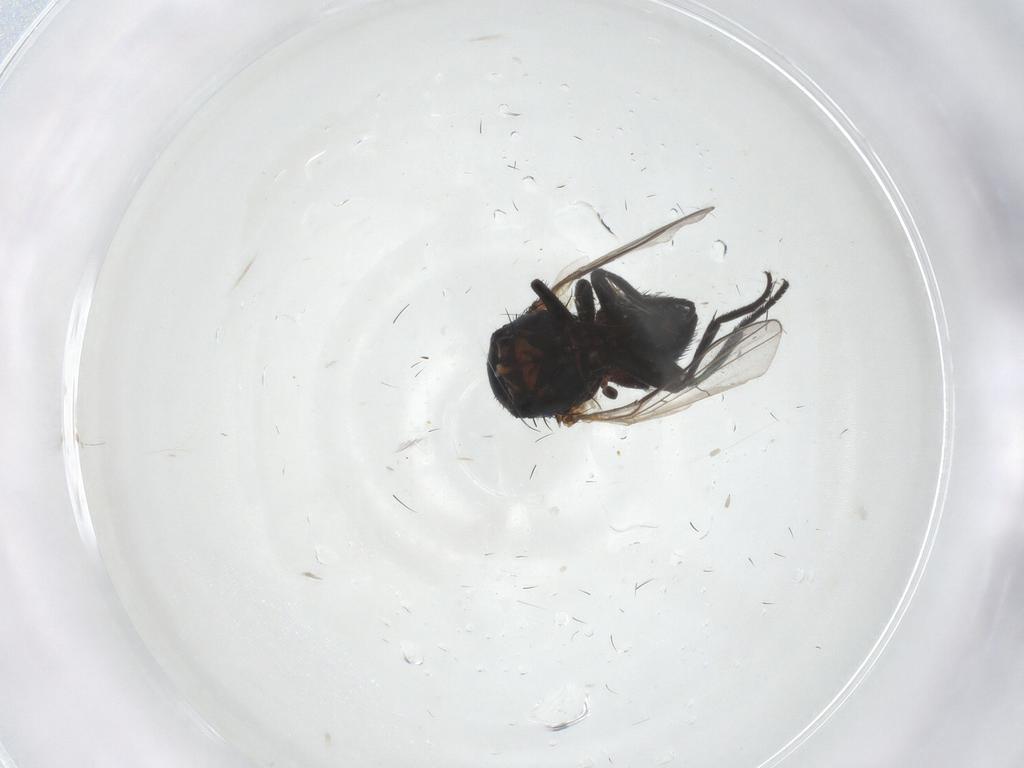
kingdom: Animalia
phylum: Arthropoda
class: Insecta
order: Diptera
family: Agromyzidae
